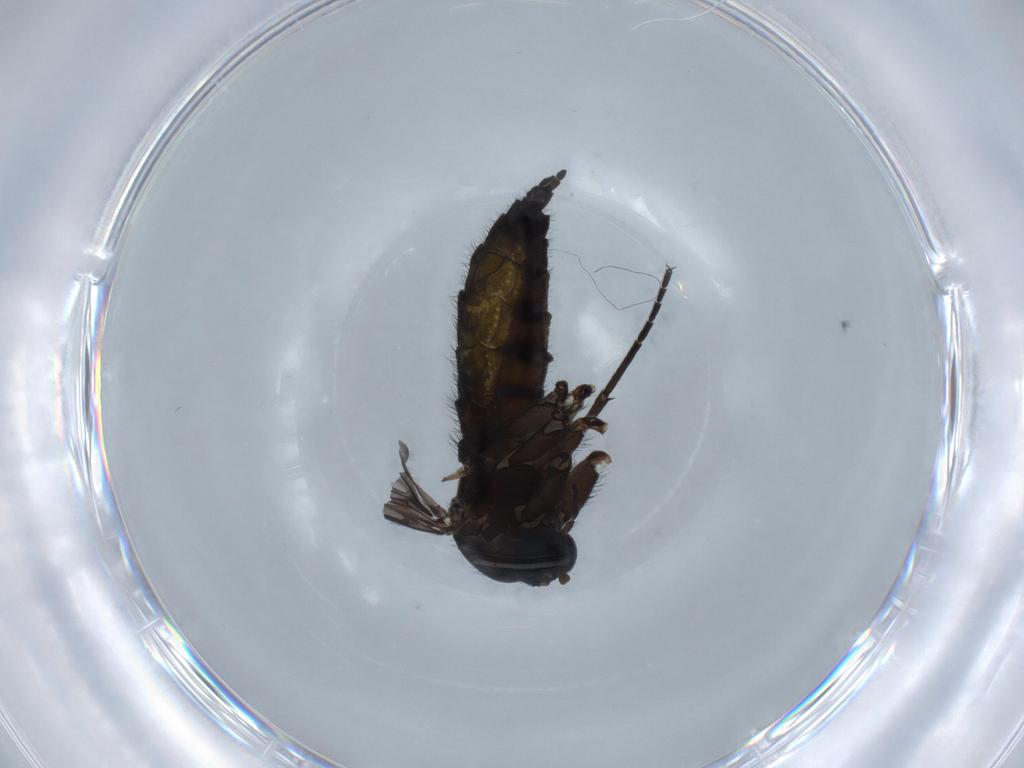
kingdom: Animalia
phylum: Arthropoda
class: Insecta
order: Diptera
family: Sciaridae
